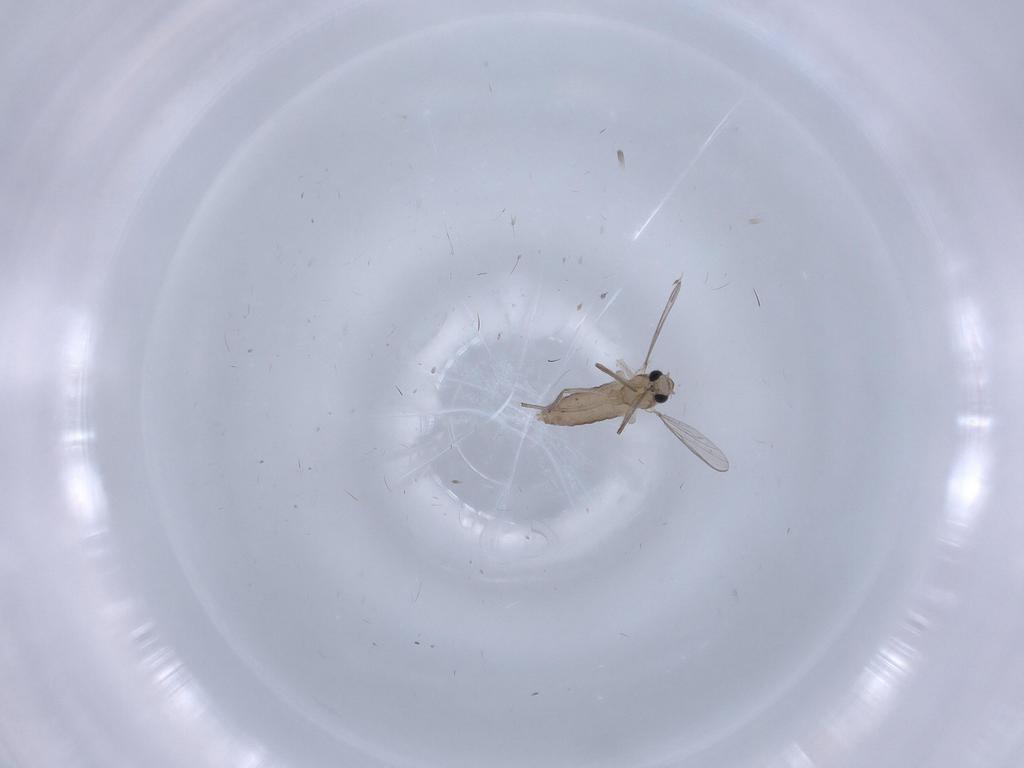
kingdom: Animalia
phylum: Arthropoda
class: Insecta
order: Diptera
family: Chironomidae
